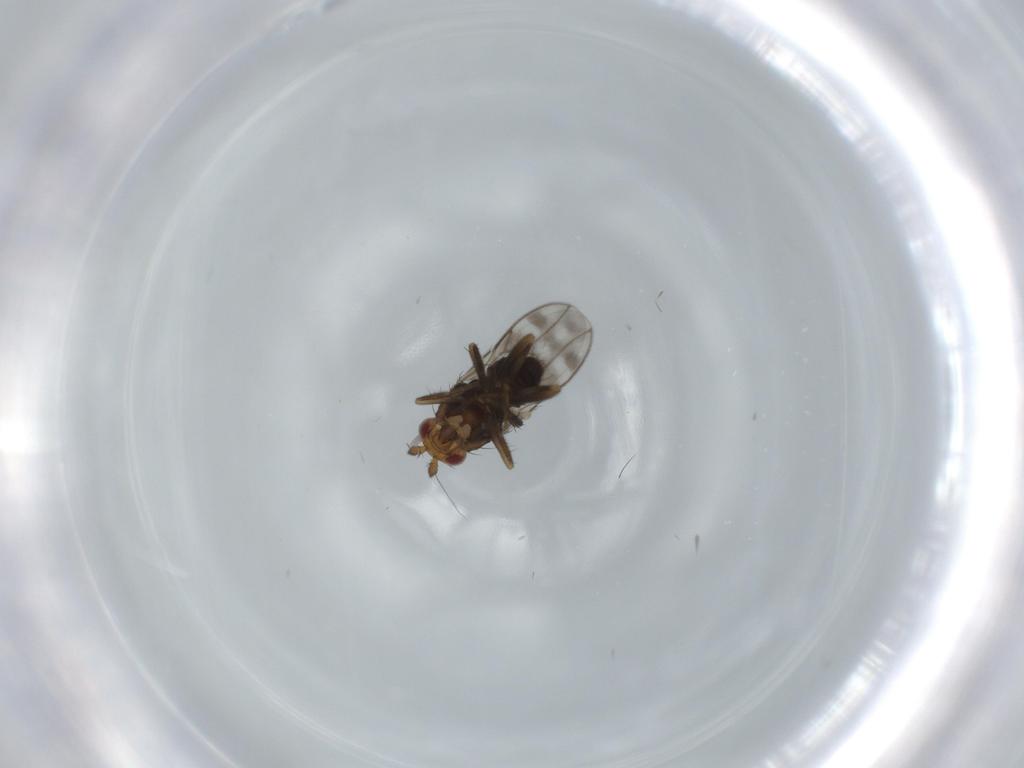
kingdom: Animalia
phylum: Arthropoda
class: Insecta
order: Diptera
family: Sphaeroceridae
